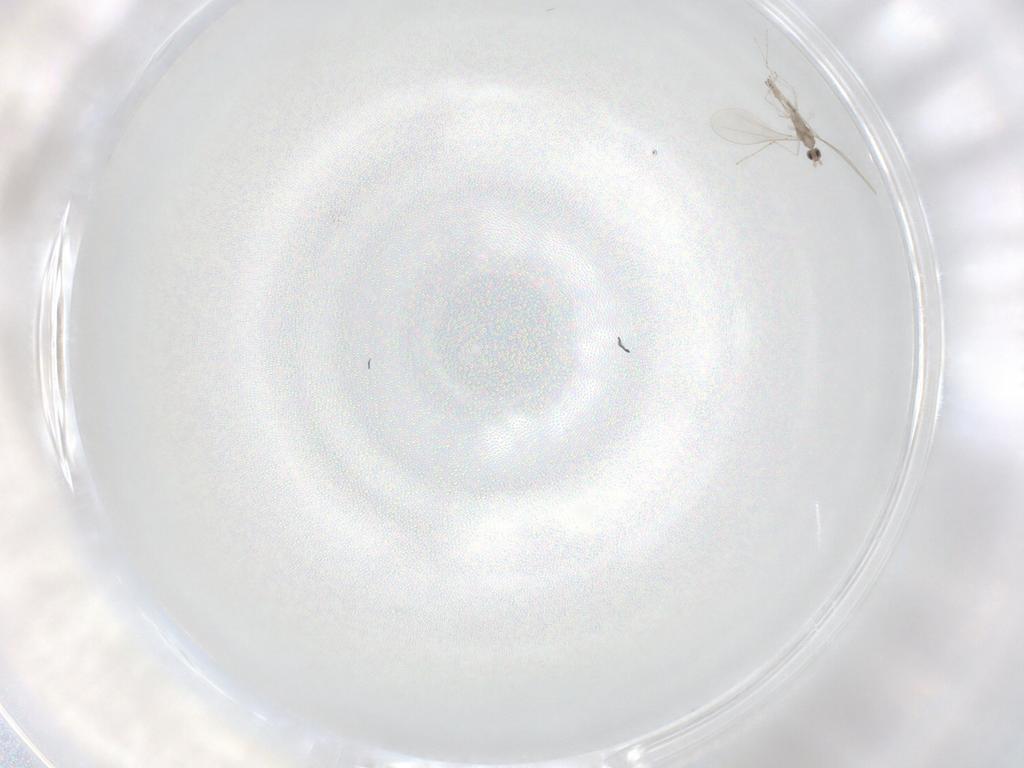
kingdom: Animalia
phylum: Arthropoda
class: Insecta
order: Diptera
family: Cecidomyiidae
